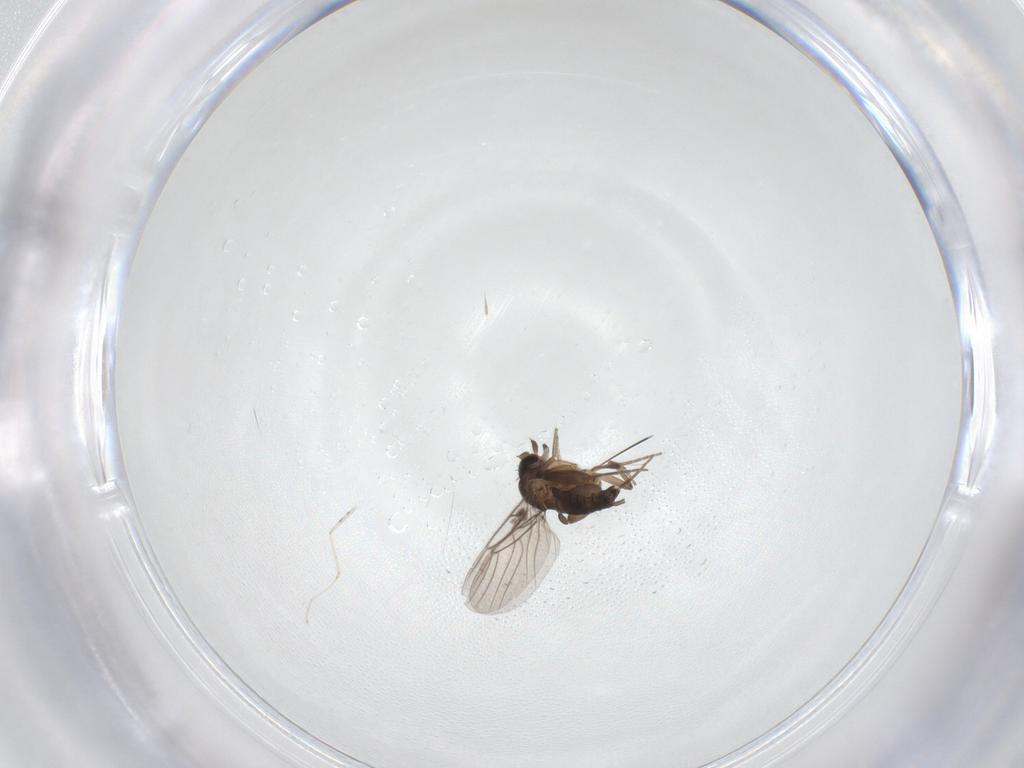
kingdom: Animalia
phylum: Arthropoda
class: Insecta
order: Diptera
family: Phoridae
